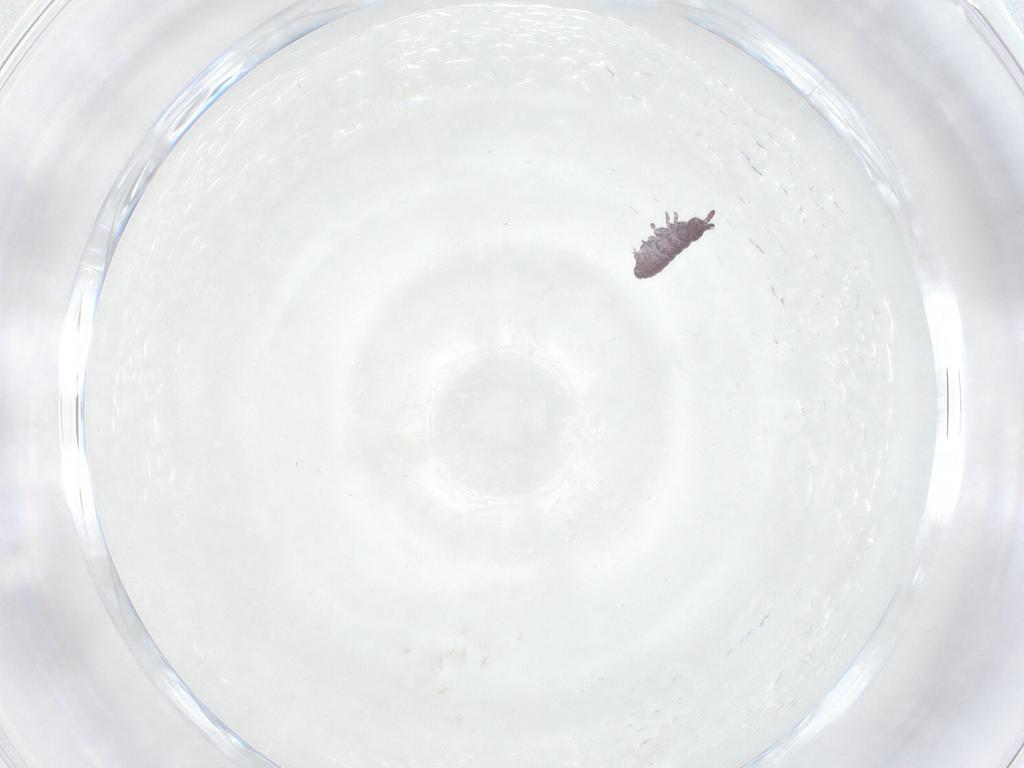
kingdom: Animalia
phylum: Arthropoda
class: Collembola
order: Poduromorpha
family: Hypogastruridae
